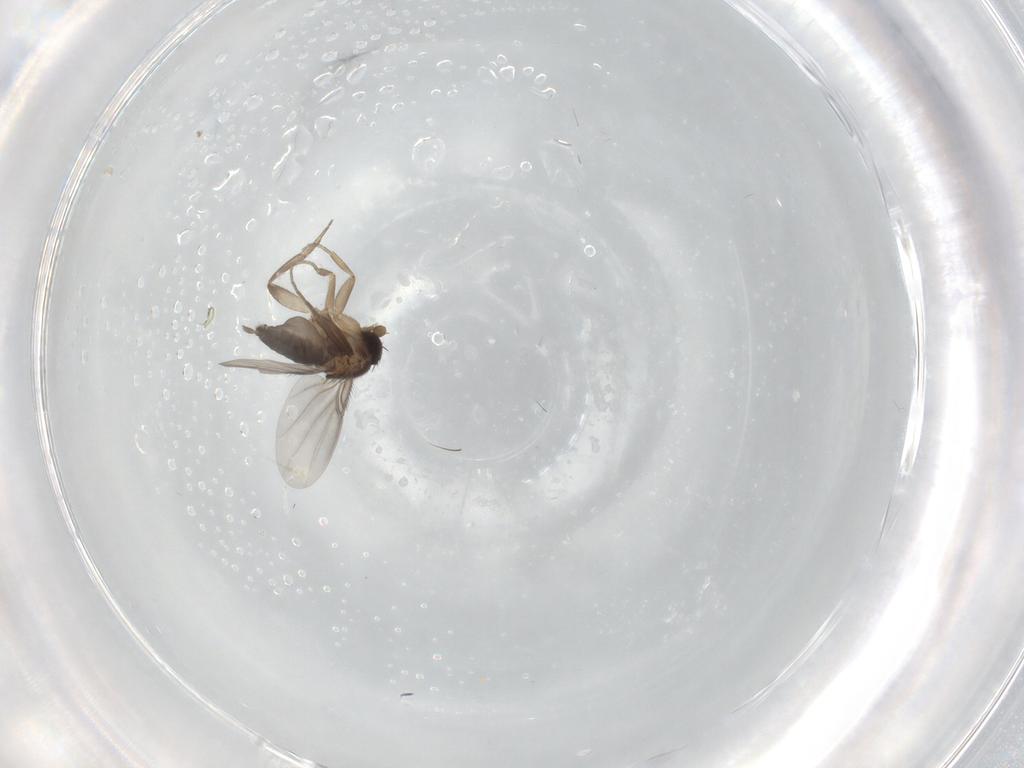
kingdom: Animalia
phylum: Arthropoda
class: Insecta
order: Diptera
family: Phoridae
